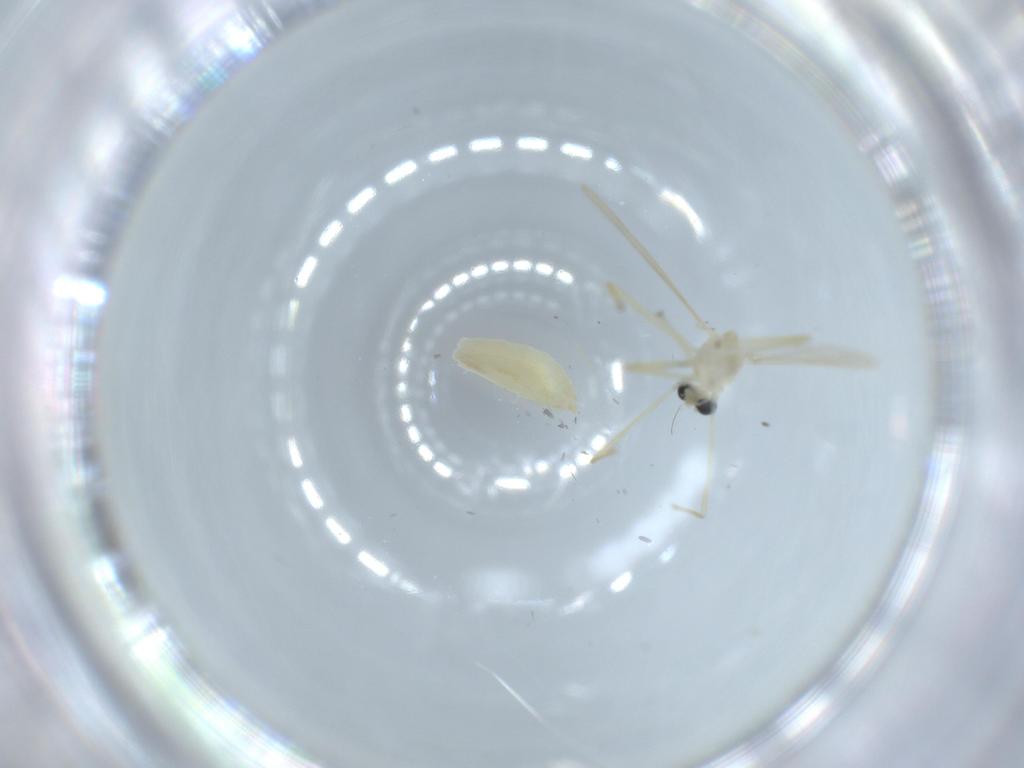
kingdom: Animalia
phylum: Arthropoda
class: Insecta
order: Diptera
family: Chironomidae
